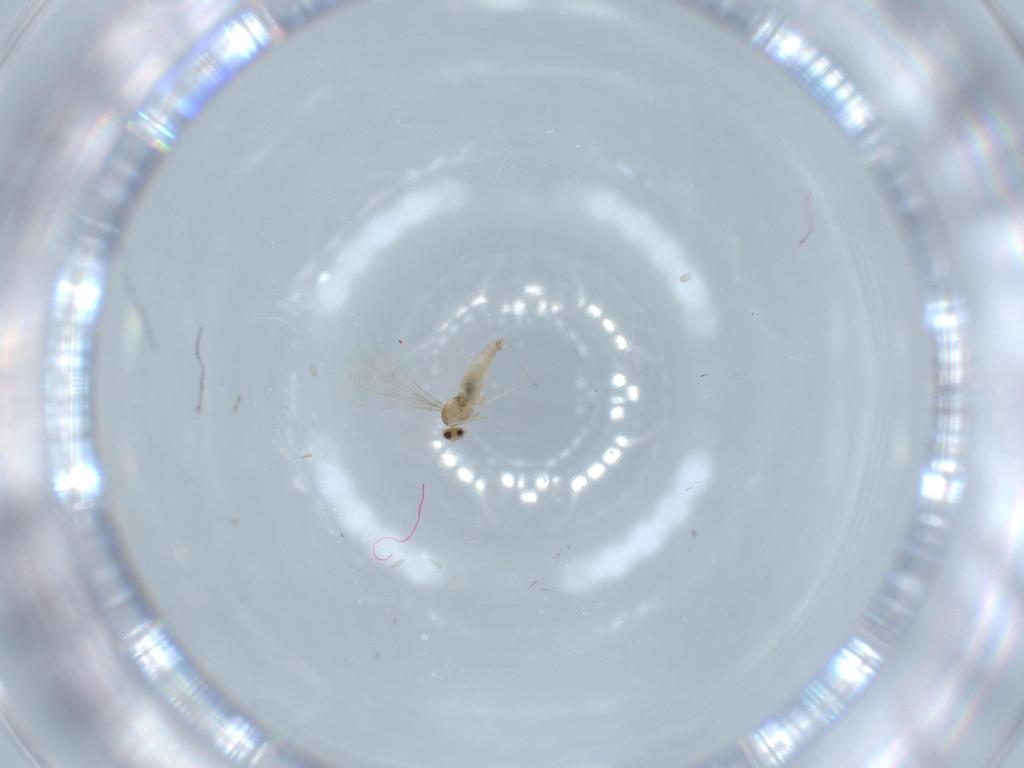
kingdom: Animalia
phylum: Arthropoda
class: Insecta
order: Diptera
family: Cecidomyiidae
